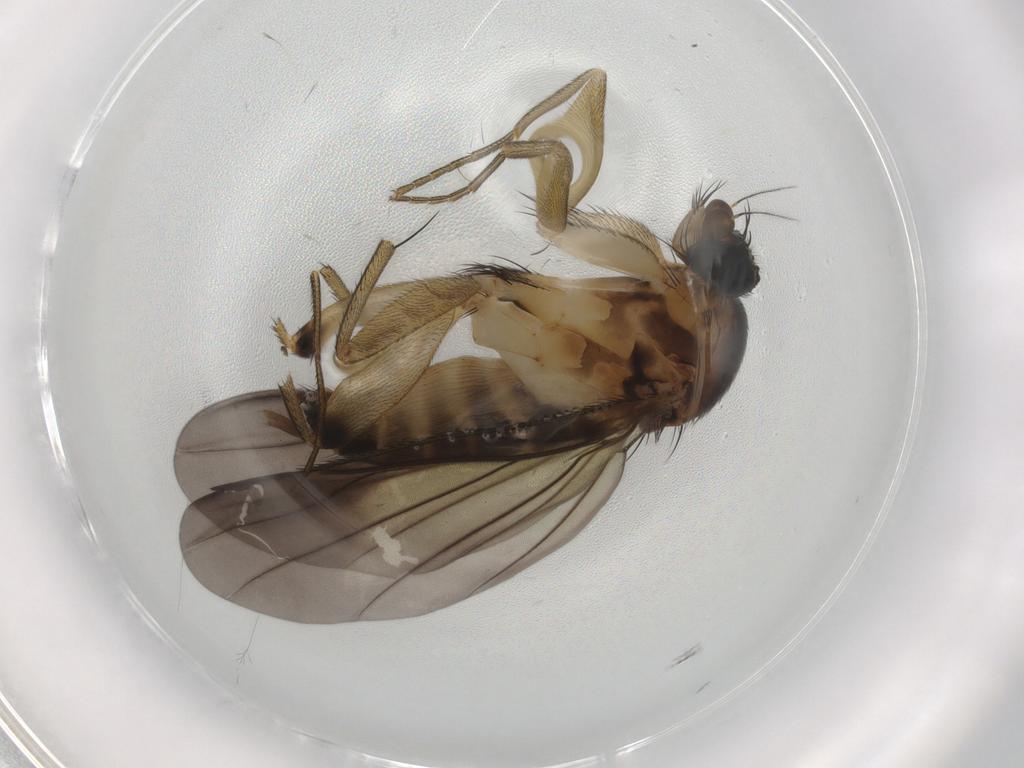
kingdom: Animalia
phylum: Arthropoda
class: Insecta
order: Diptera
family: Phoridae
